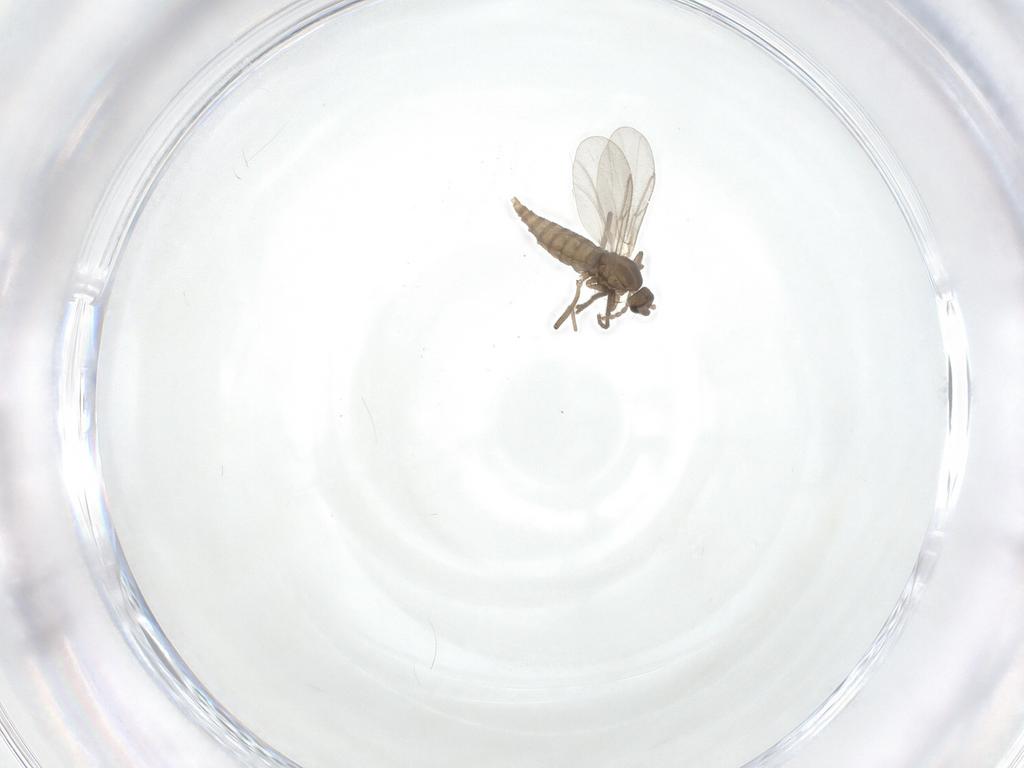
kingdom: Animalia
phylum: Arthropoda
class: Insecta
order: Diptera
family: Cecidomyiidae
